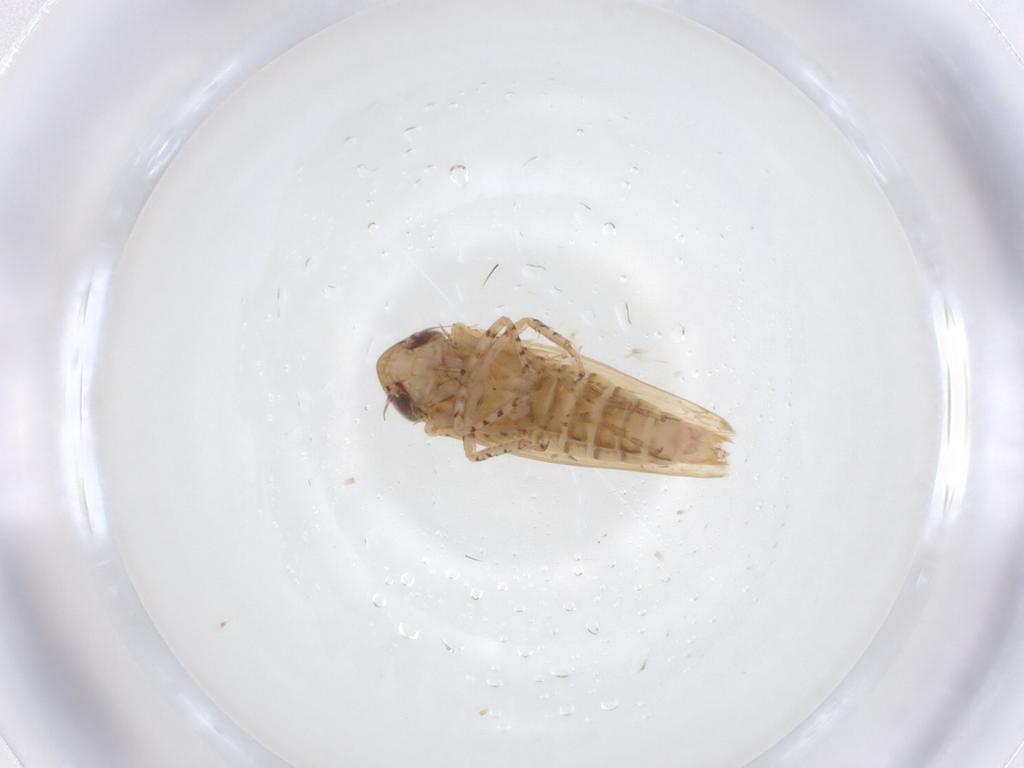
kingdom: Animalia
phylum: Arthropoda
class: Insecta
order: Hemiptera
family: Cicadellidae
